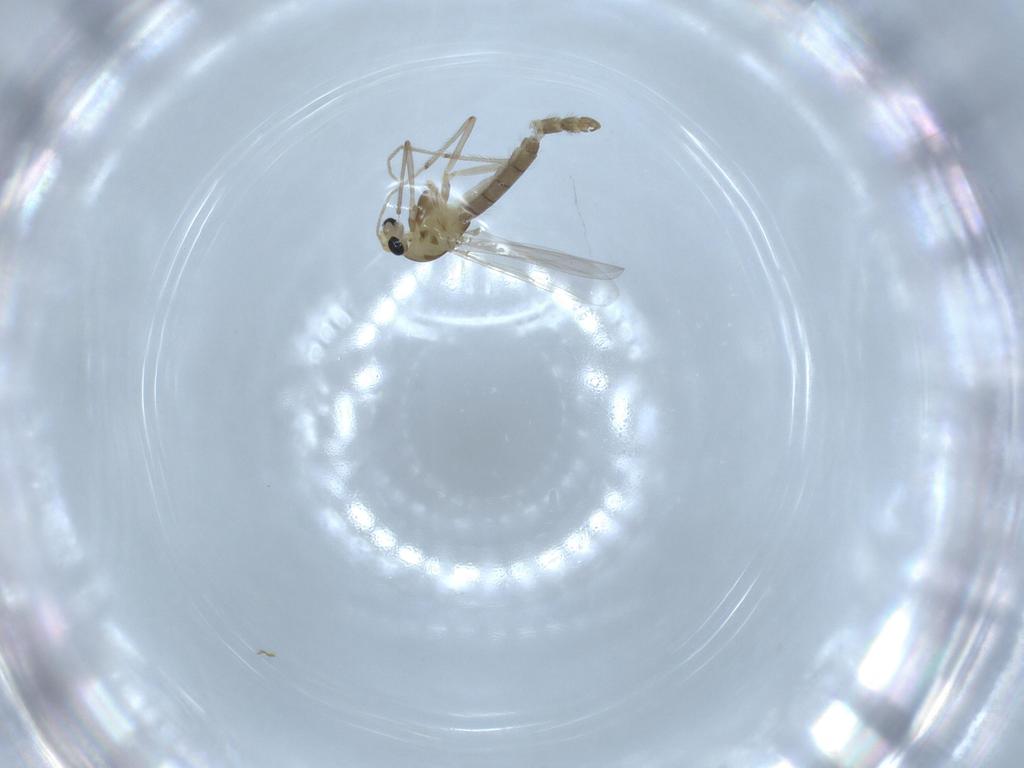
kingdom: Animalia
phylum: Arthropoda
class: Insecta
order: Diptera
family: Chironomidae
